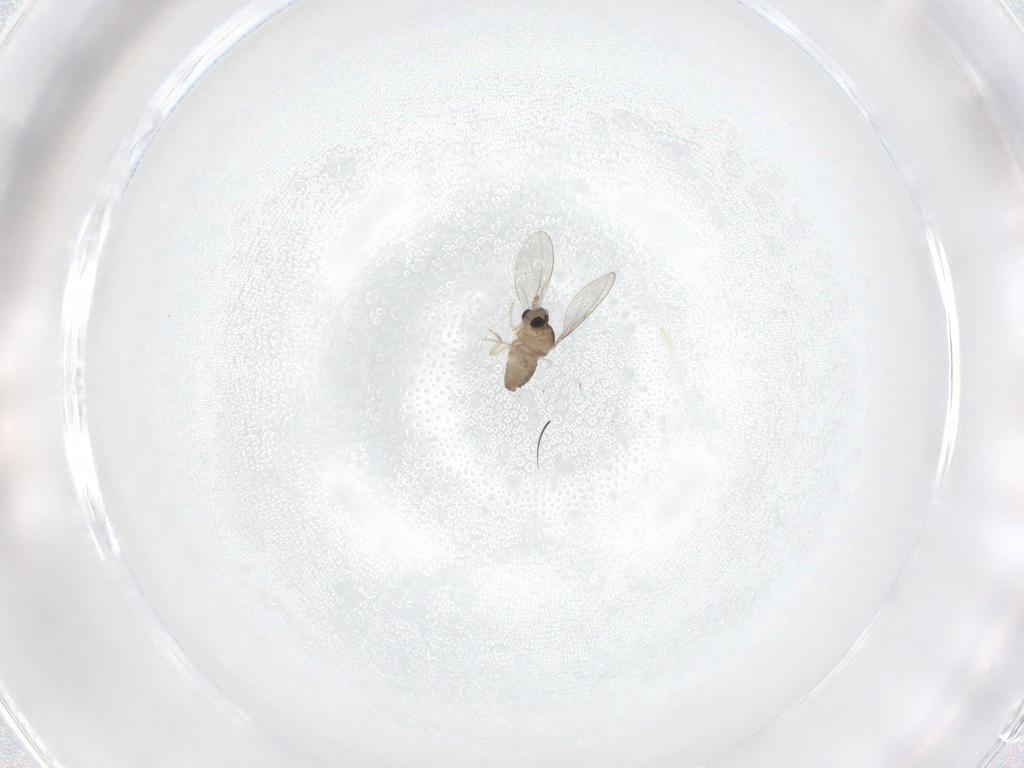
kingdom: Animalia
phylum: Arthropoda
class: Insecta
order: Diptera
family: Cecidomyiidae
